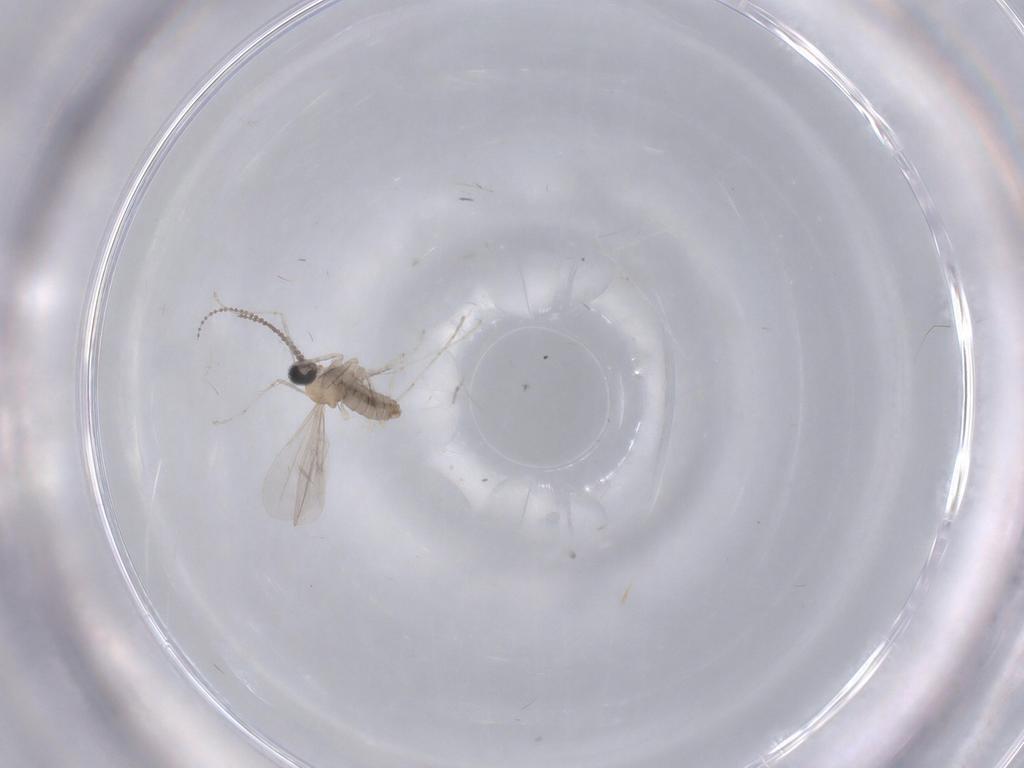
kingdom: Animalia
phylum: Arthropoda
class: Insecta
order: Diptera
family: Cecidomyiidae
